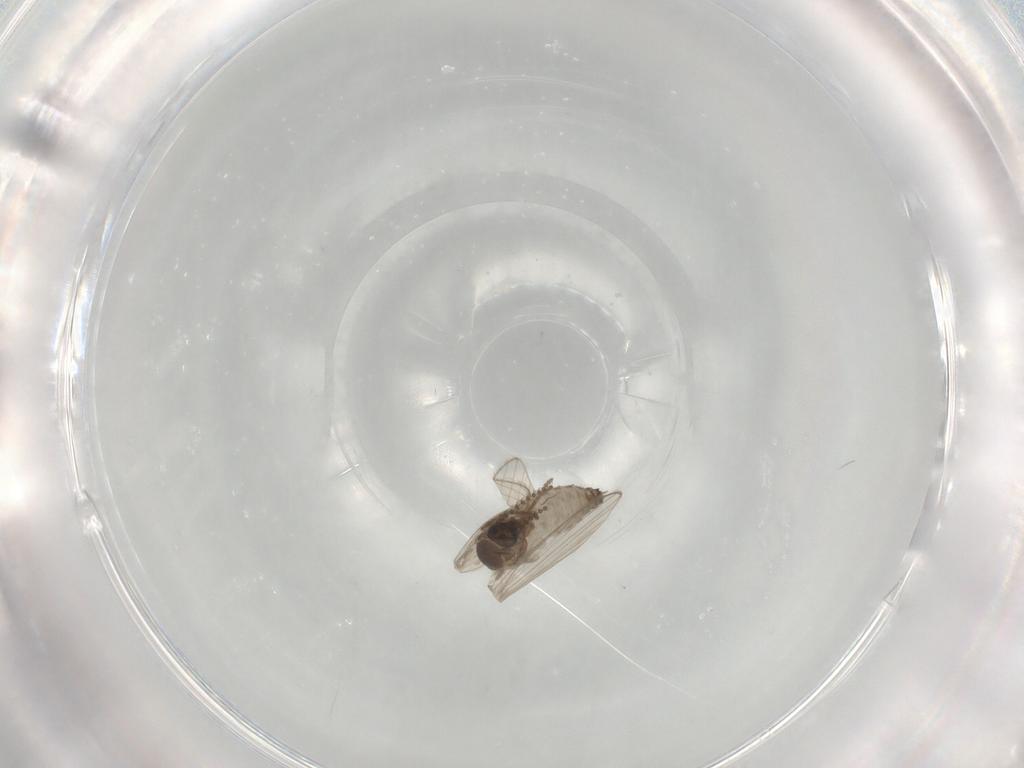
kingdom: Animalia
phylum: Arthropoda
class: Insecta
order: Diptera
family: Psychodidae
